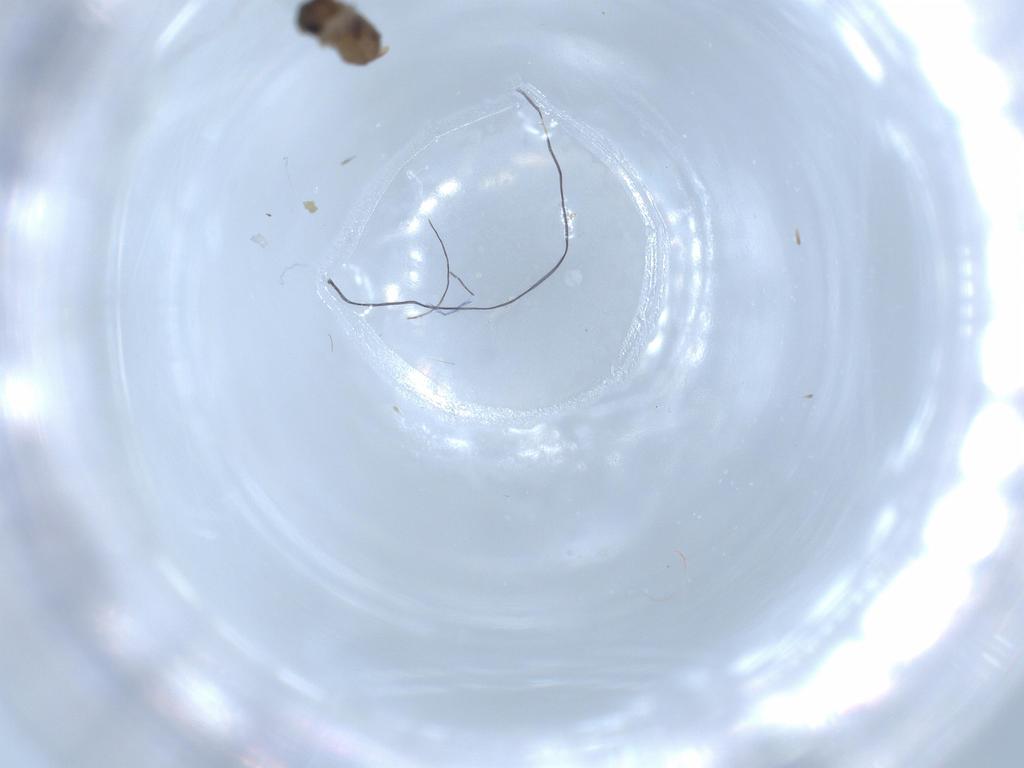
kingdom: Animalia
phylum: Arthropoda
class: Insecta
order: Diptera
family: Psychodidae
